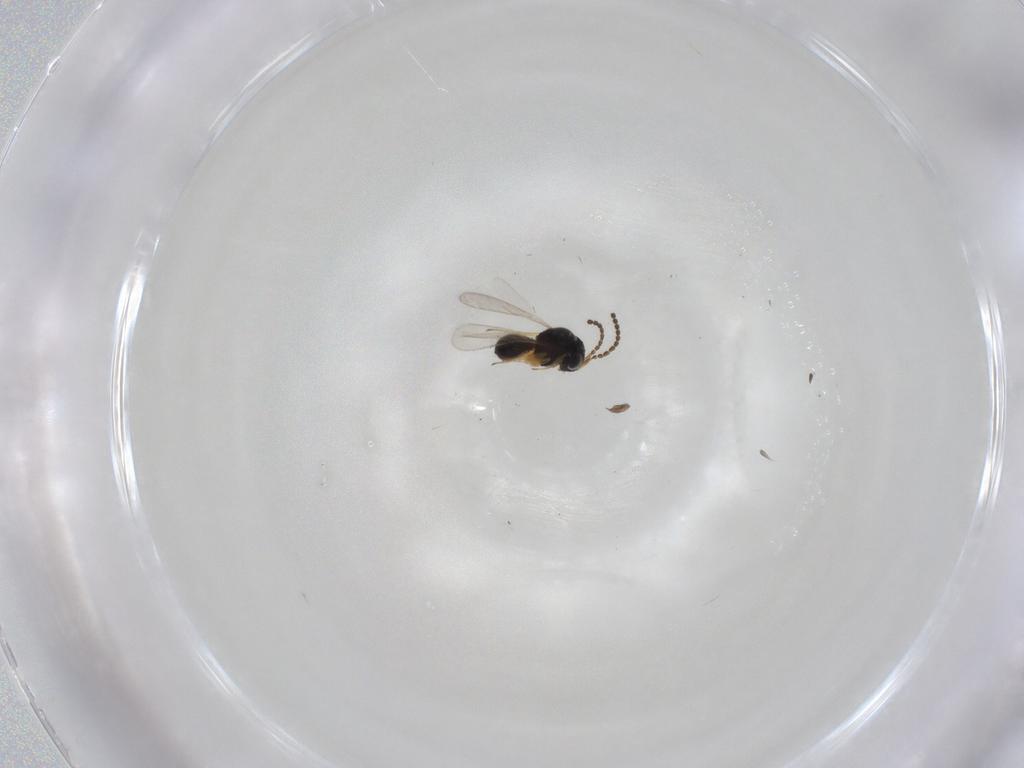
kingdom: Animalia
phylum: Arthropoda
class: Insecta
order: Hymenoptera
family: Scelionidae
